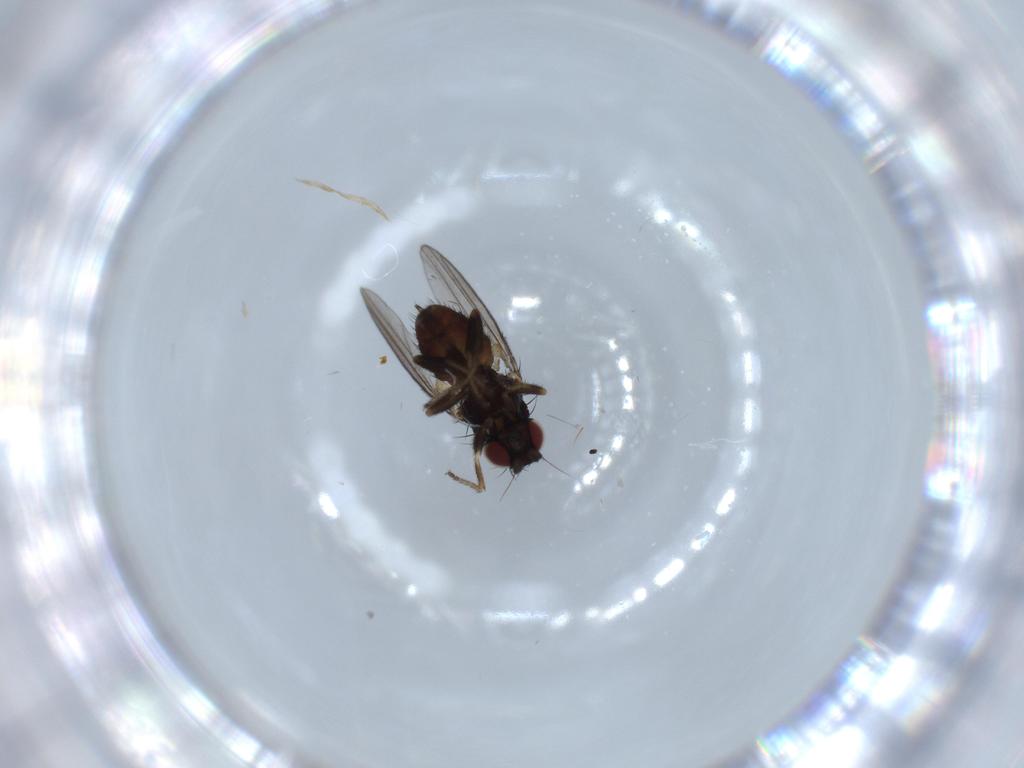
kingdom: Animalia
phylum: Arthropoda
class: Insecta
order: Diptera
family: Milichiidae
